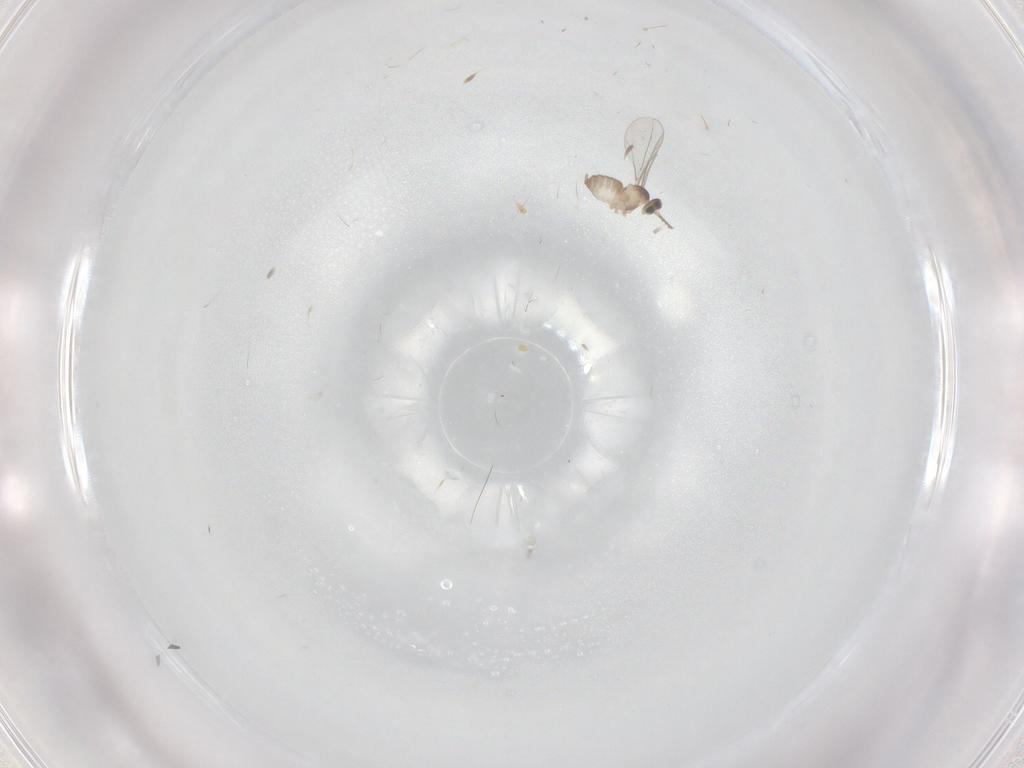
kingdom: Animalia
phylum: Arthropoda
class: Insecta
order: Diptera
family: Cecidomyiidae
